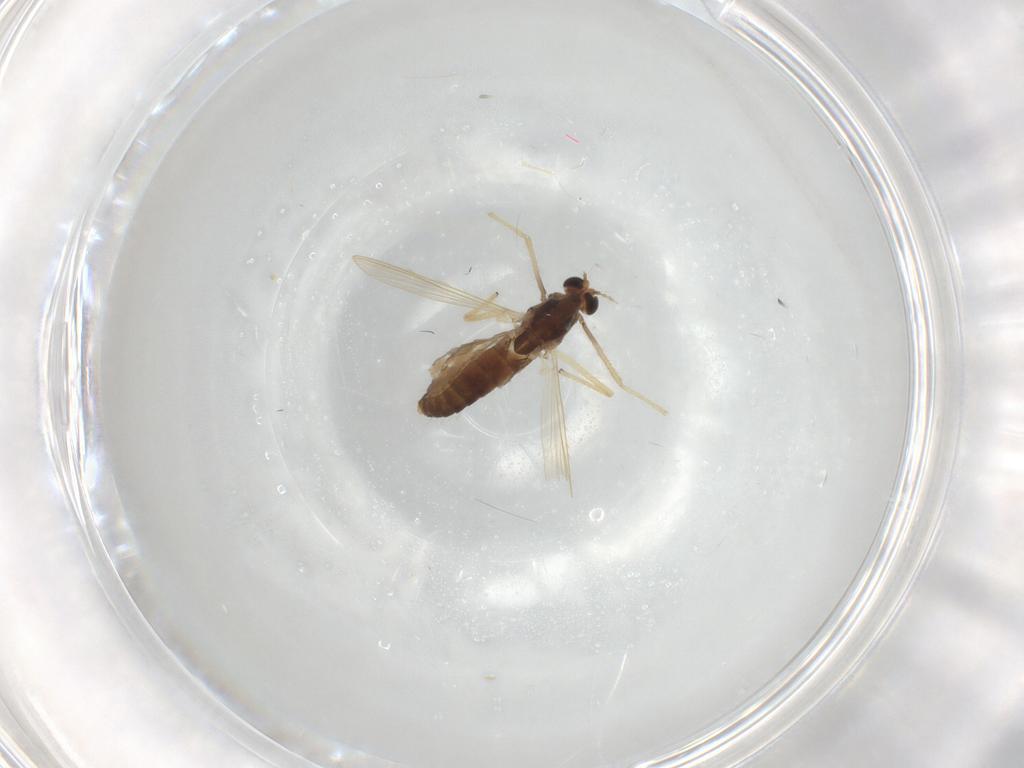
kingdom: Animalia
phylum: Arthropoda
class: Insecta
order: Diptera
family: Chironomidae
